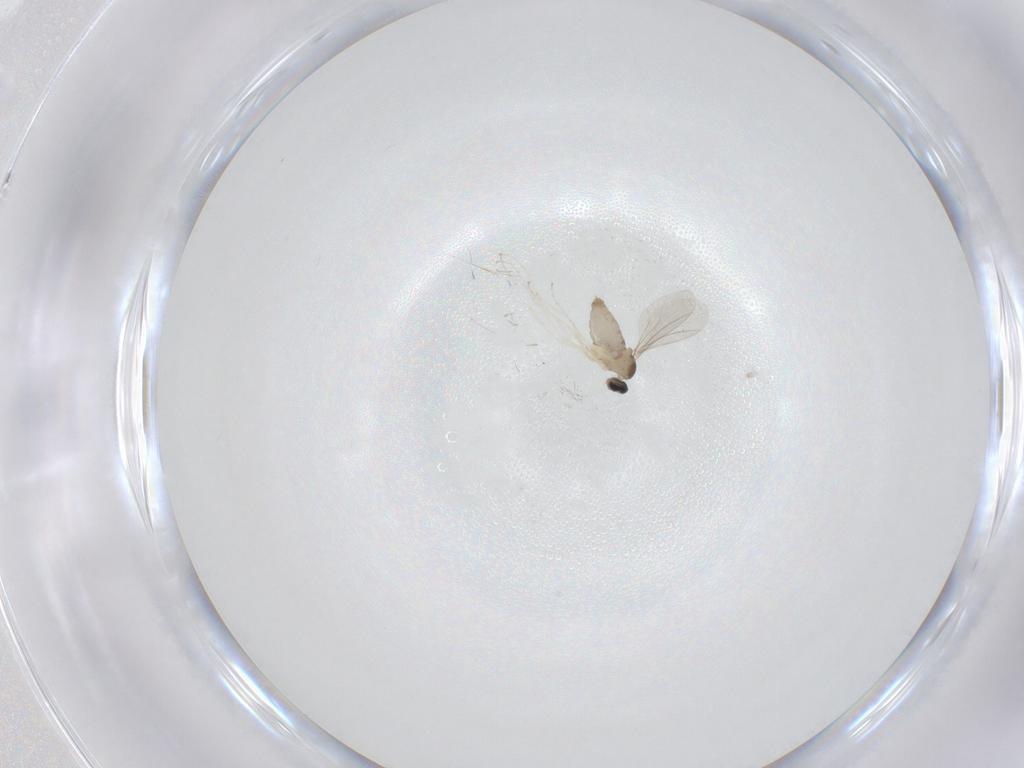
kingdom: Animalia
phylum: Arthropoda
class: Insecta
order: Diptera
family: Cecidomyiidae
